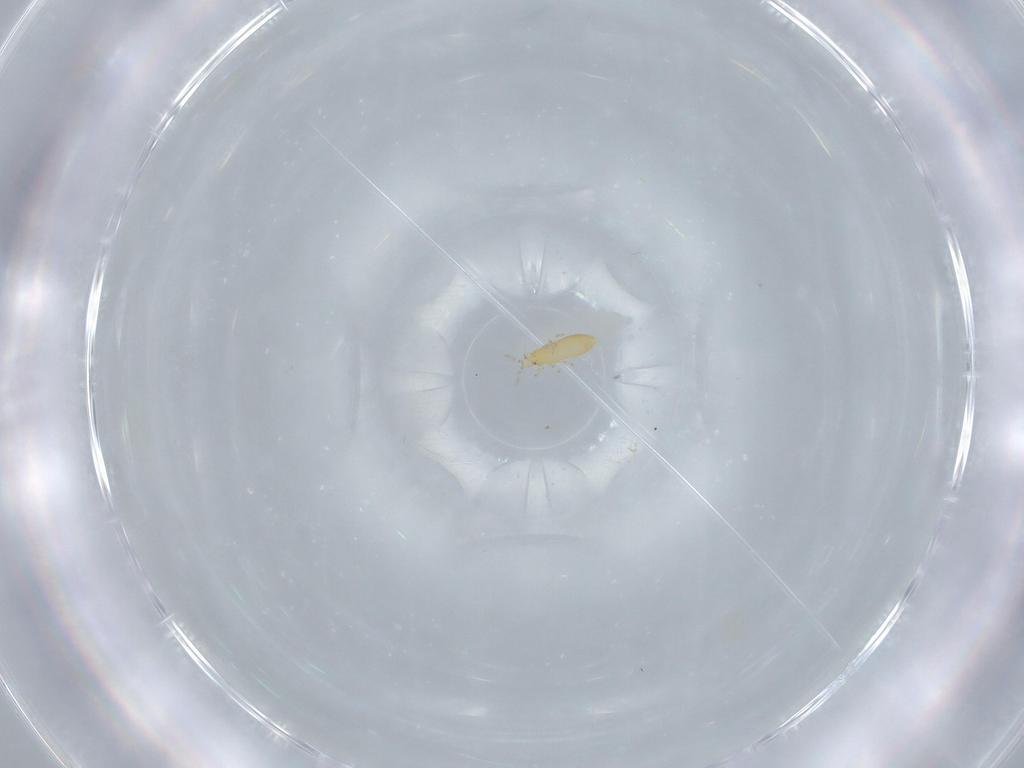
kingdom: Animalia
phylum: Arthropoda
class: Insecta
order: Thysanoptera
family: Thripidae
